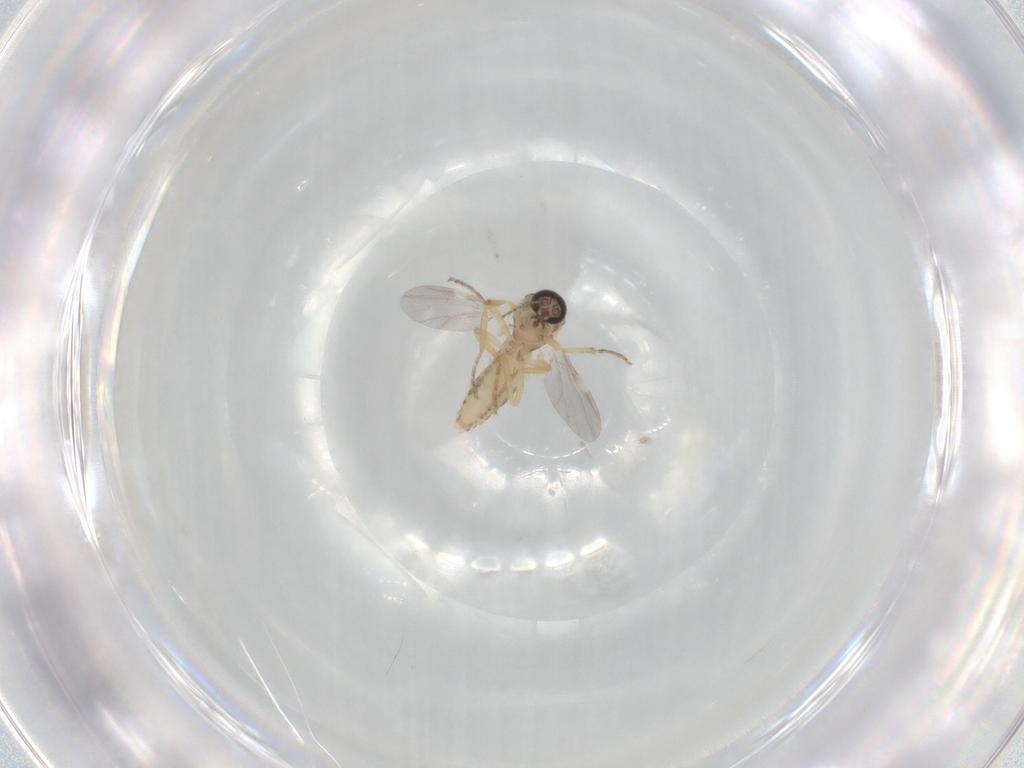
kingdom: Animalia
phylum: Arthropoda
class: Insecta
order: Diptera
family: Ceratopogonidae
